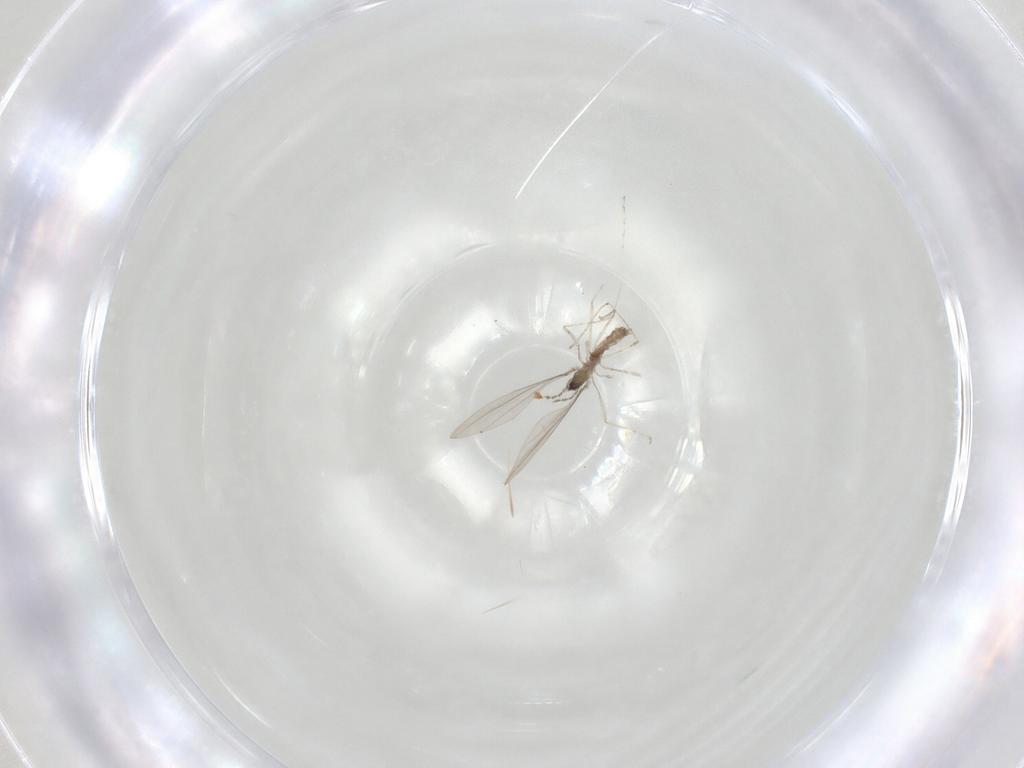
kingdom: Animalia
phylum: Arthropoda
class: Insecta
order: Diptera
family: Cecidomyiidae
